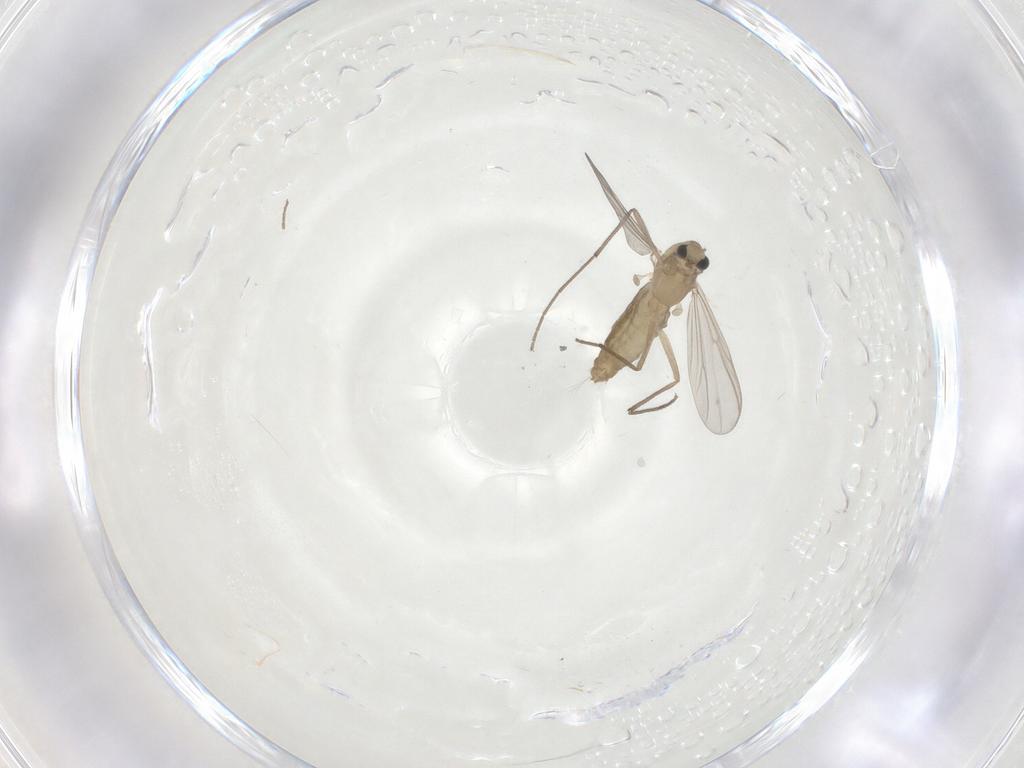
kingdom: Animalia
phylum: Arthropoda
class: Insecta
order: Diptera
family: Chironomidae
